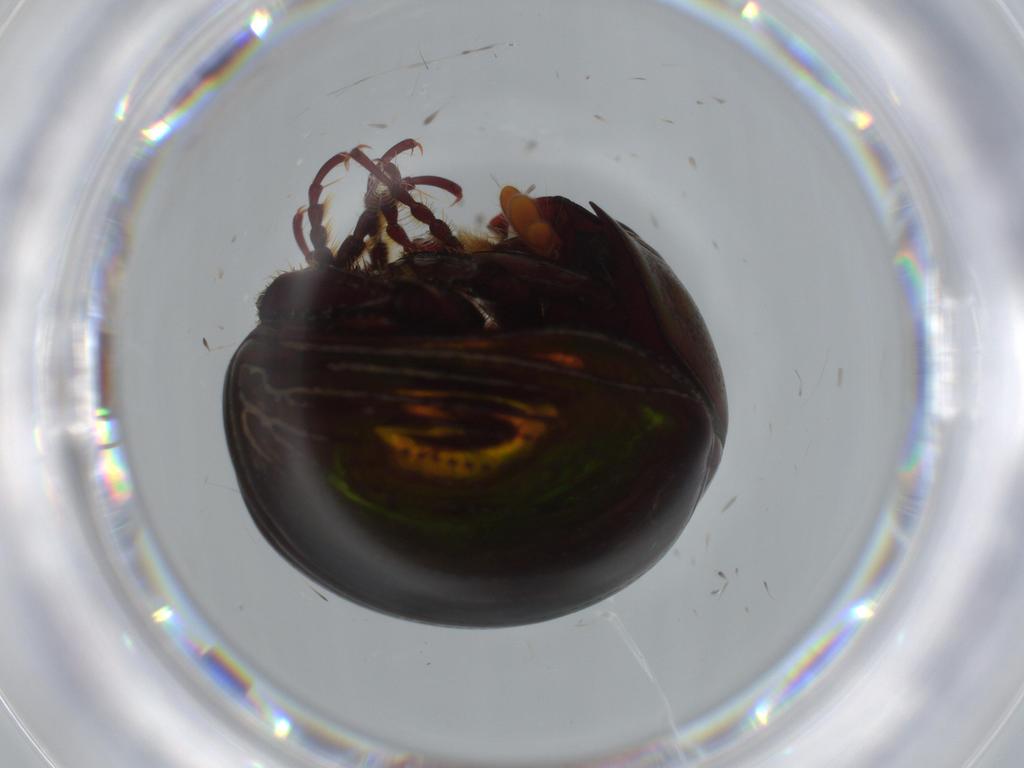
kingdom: Animalia
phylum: Arthropoda
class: Insecta
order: Coleoptera
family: Hybosoridae
